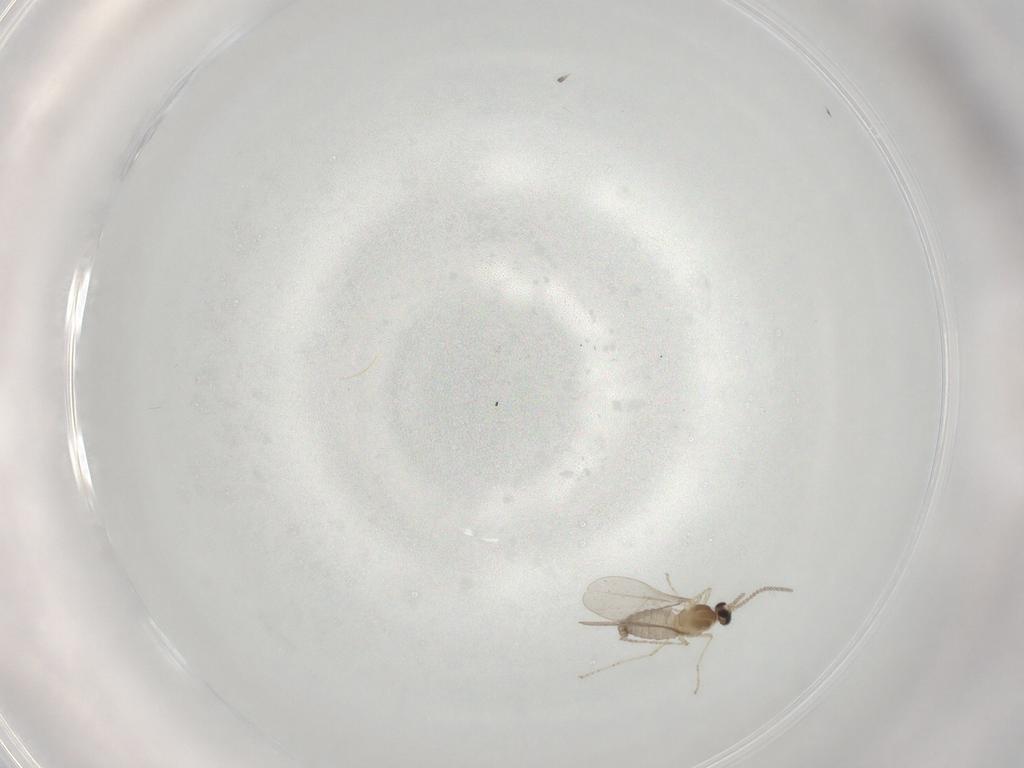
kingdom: Animalia
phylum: Arthropoda
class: Insecta
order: Diptera
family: Cecidomyiidae
